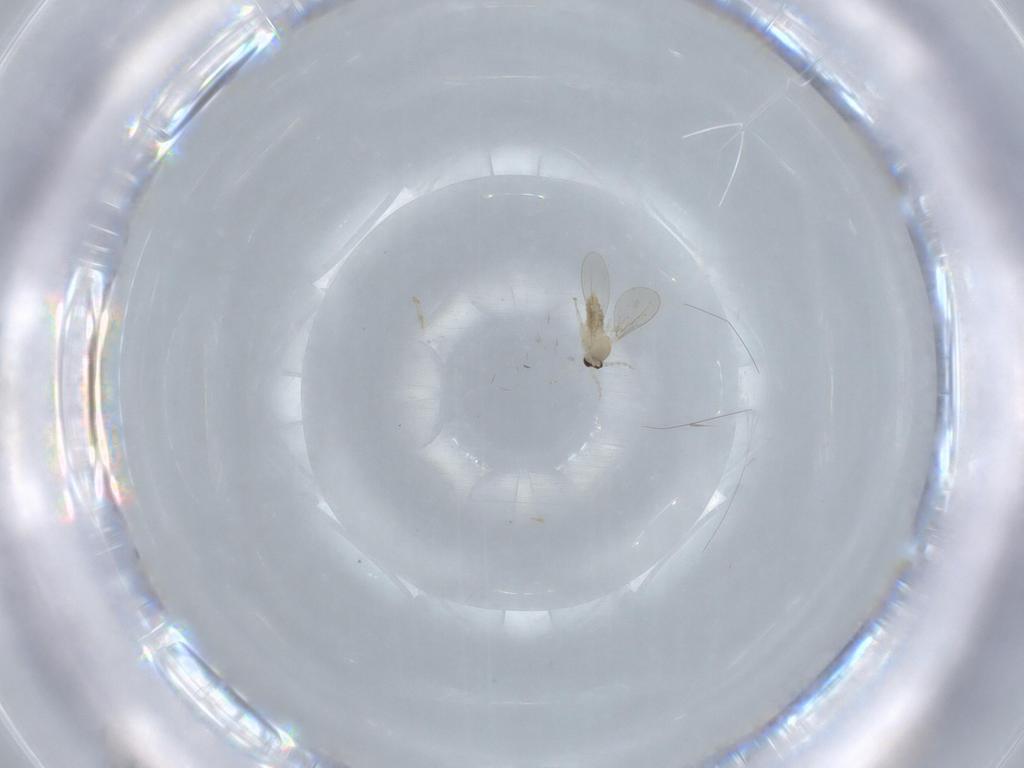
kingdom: Animalia
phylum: Arthropoda
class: Insecta
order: Diptera
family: Cecidomyiidae
